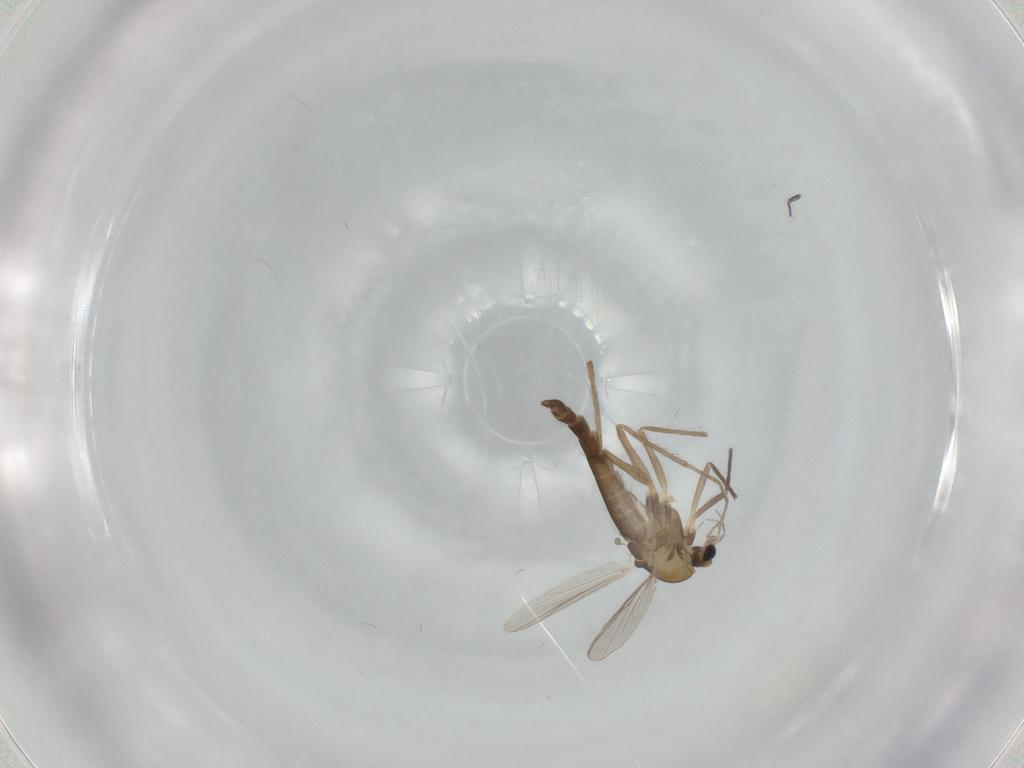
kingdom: Animalia
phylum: Arthropoda
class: Insecta
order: Diptera
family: Chironomidae
